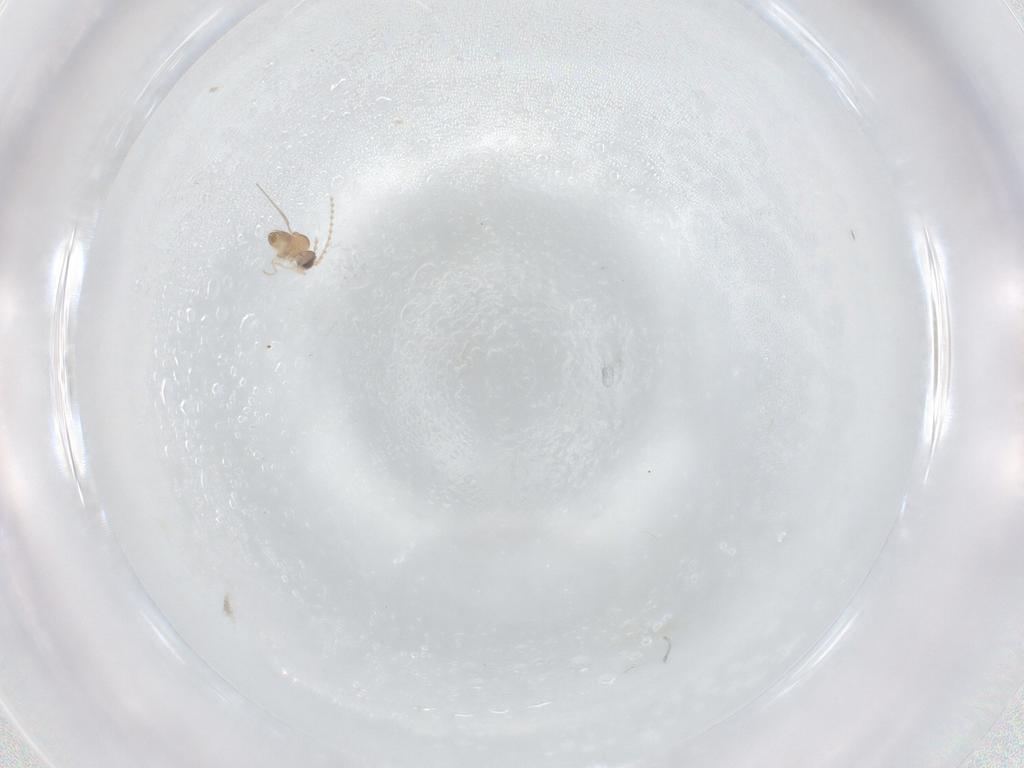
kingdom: Animalia
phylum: Arthropoda
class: Insecta
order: Diptera
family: Cecidomyiidae
